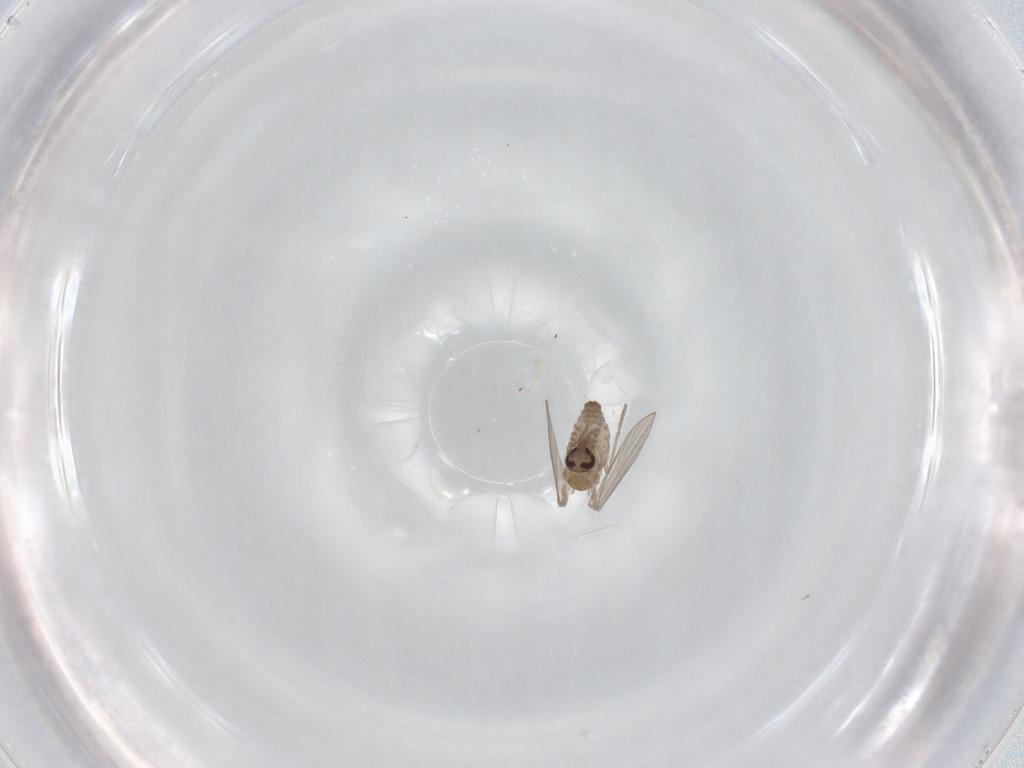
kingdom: Animalia
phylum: Arthropoda
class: Insecta
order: Diptera
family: Psychodidae
